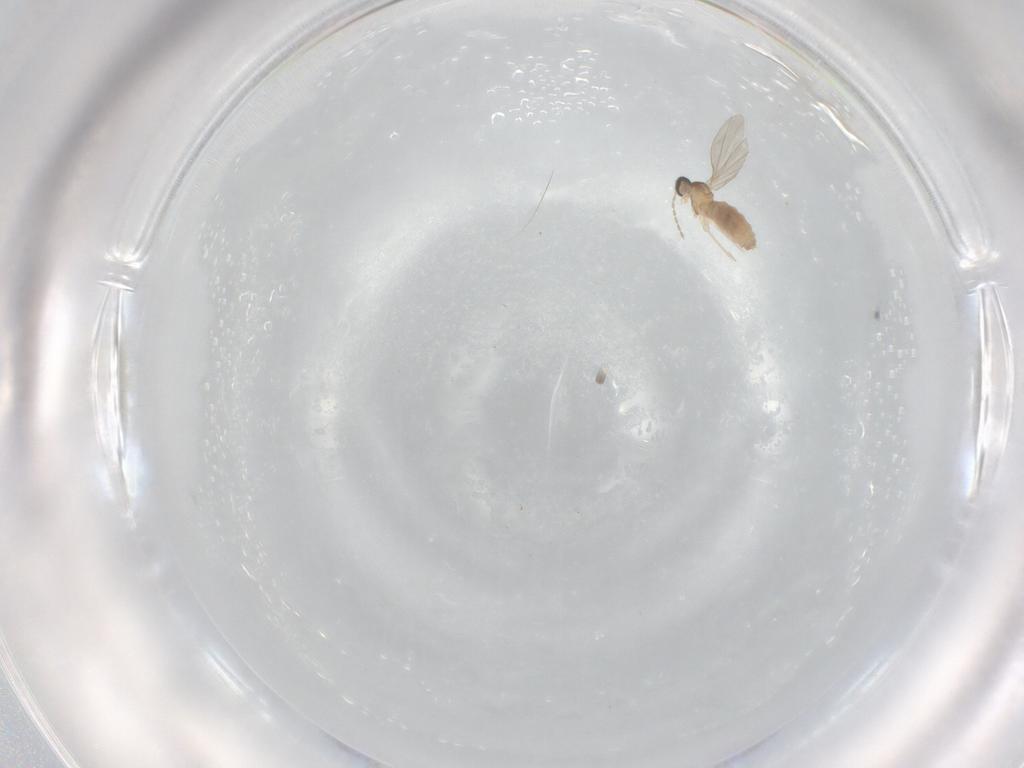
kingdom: Animalia
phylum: Arthropoda
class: Insecta
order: Diptera
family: Cecidomyiidae
